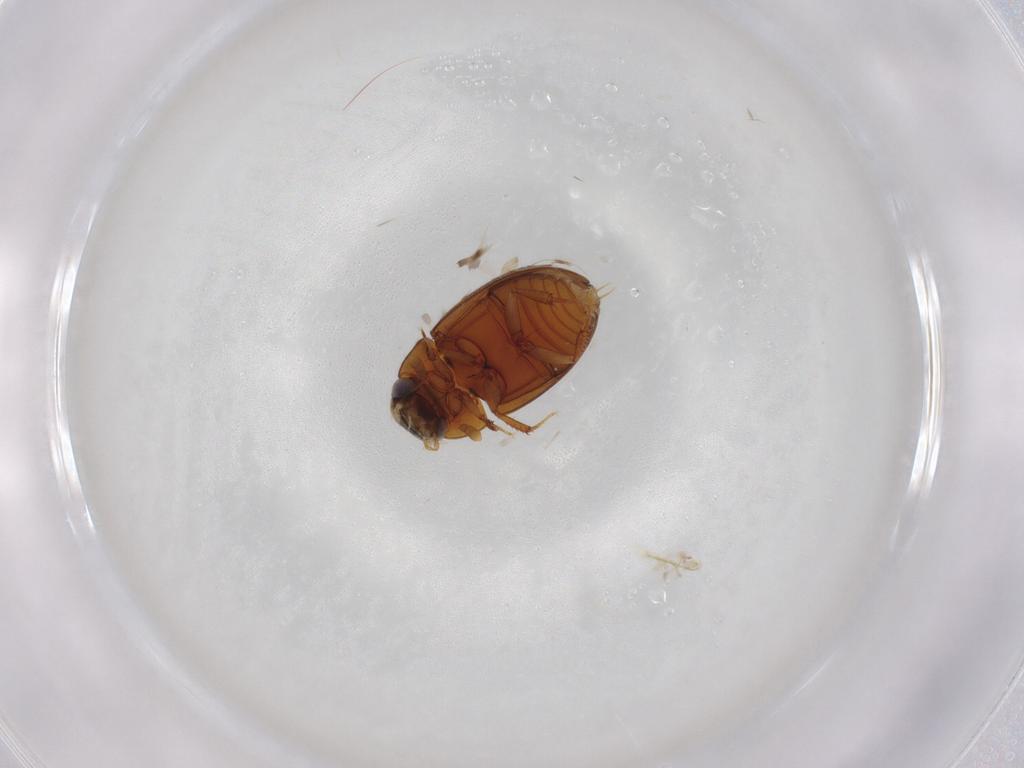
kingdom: Animalia
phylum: Arthropoda
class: Insecta
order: Coleoptera
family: Hydrophilidae
